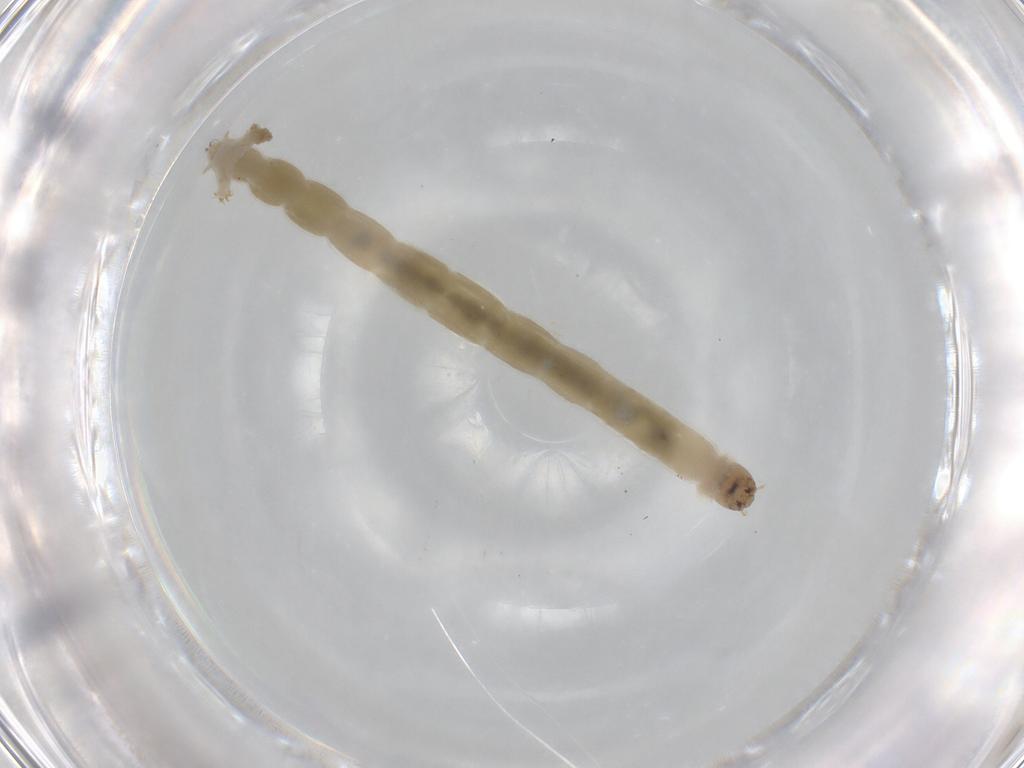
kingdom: Animalia
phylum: Arthropoda
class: Insecta
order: Diptera
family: Chironomidae
